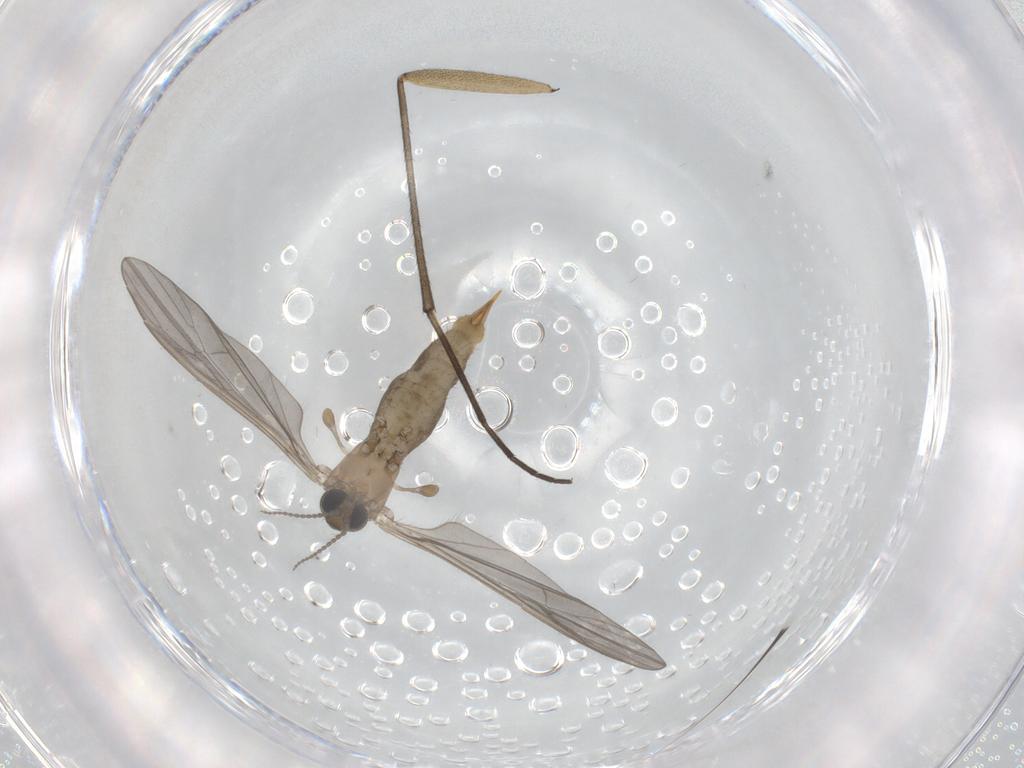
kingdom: Animalia
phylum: Arthropoda
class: Insecta
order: Diptera
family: Limoniidae
